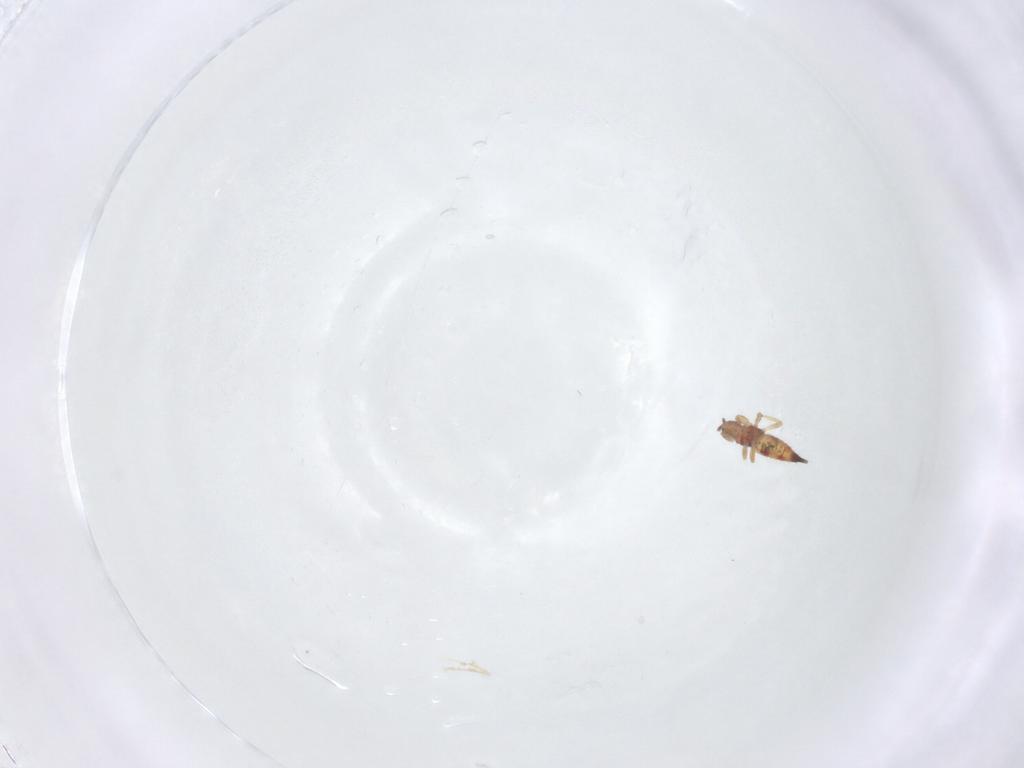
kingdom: Animalia
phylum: Arthropoda
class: Insecta
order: Thysanoptera
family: Phlaeothripidae
